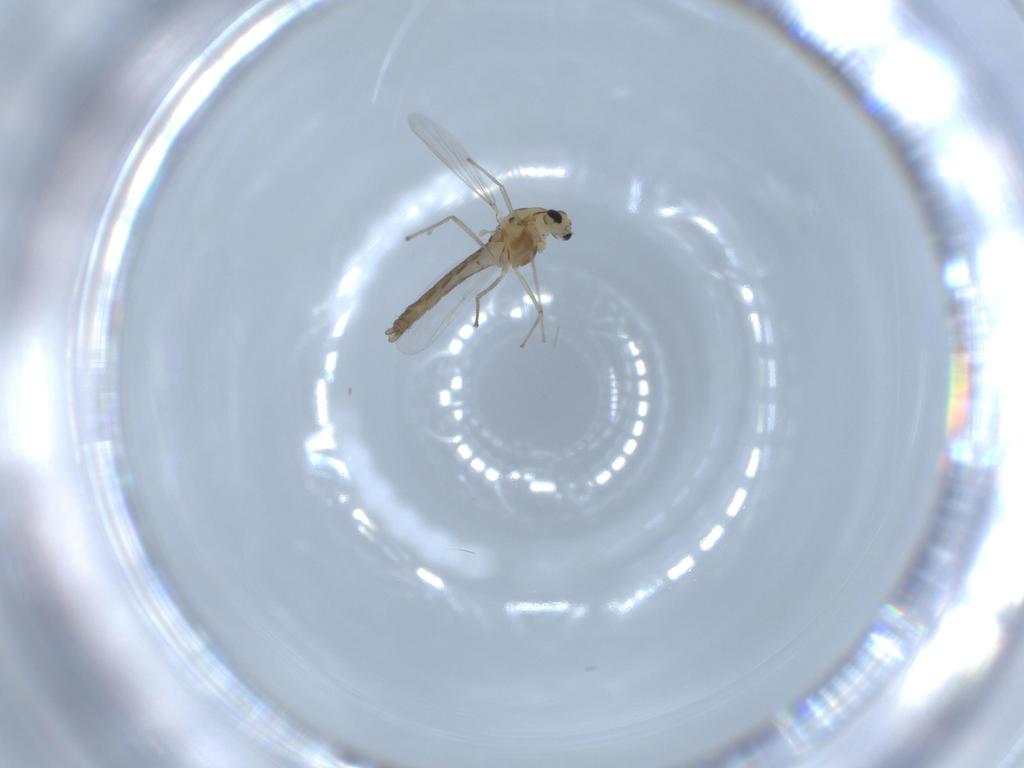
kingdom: Animalia
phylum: Arthropoda
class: Insecta
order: Diptera
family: Chironomidae
